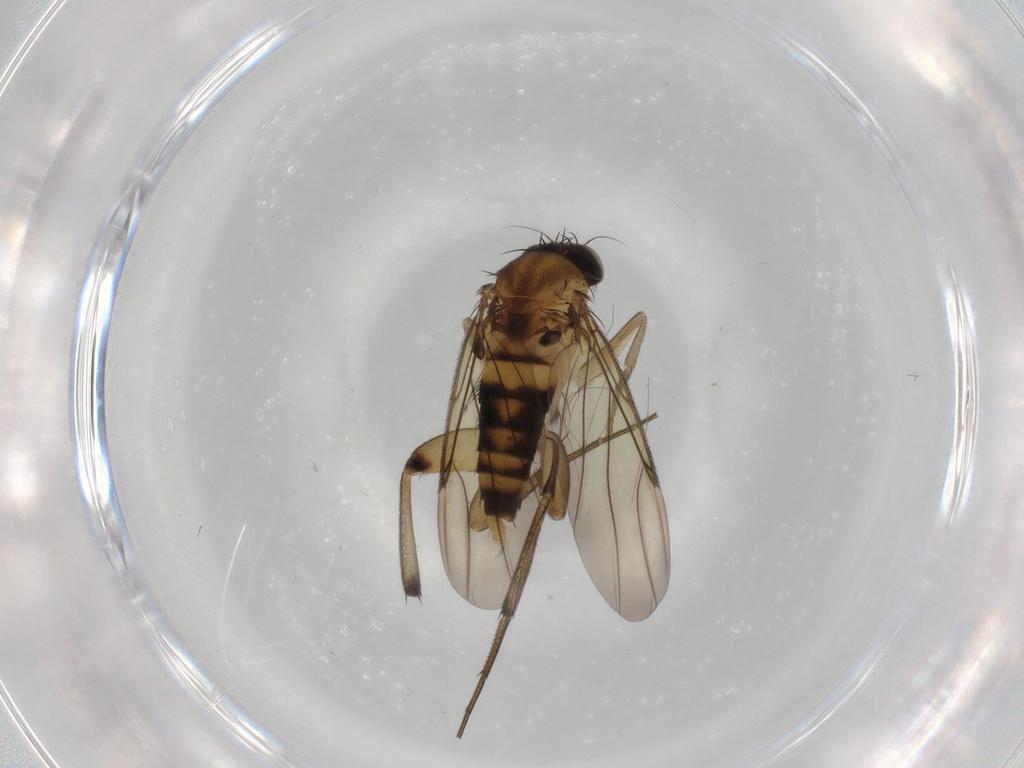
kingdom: Animalia
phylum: Arthropoda
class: Insecta
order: Diptera
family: Phoridae
